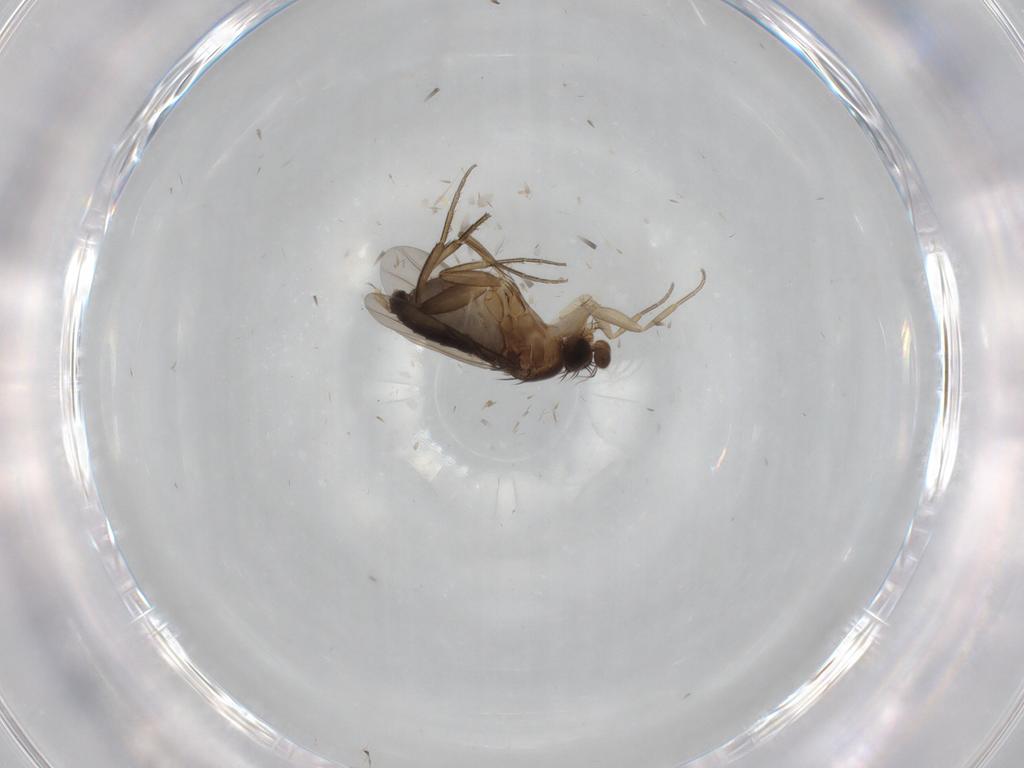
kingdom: Animalia
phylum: Arthropoda
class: Insecta
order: Diptera
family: Phoridae
